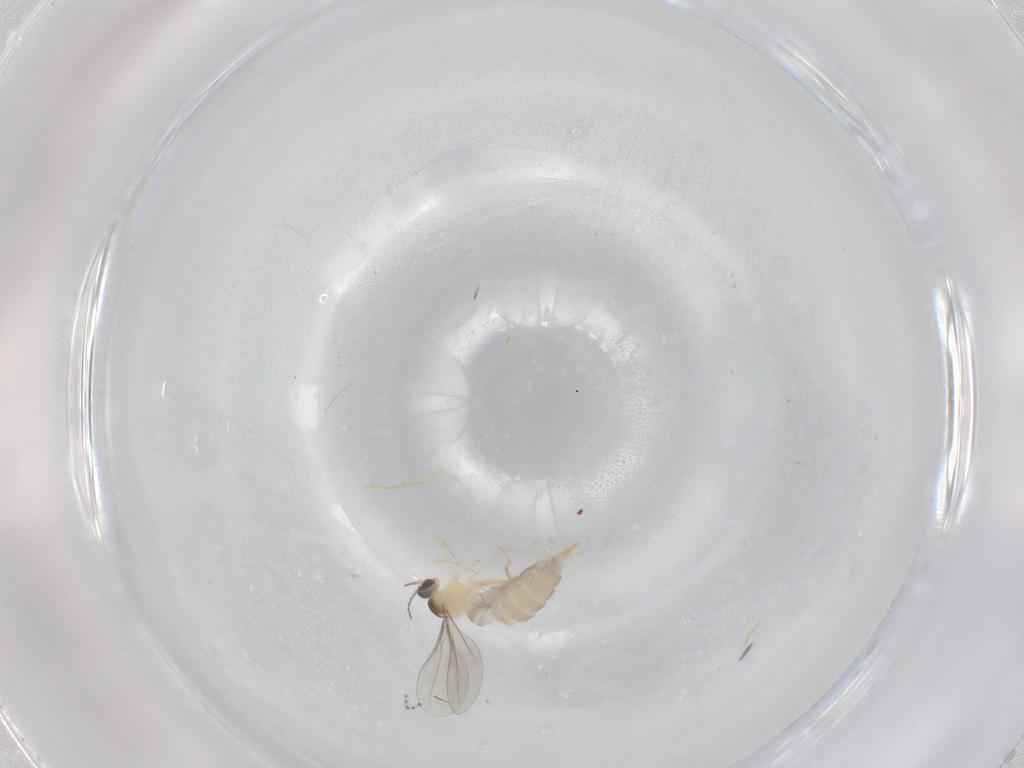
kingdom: Animalia
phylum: Arthropoda
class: Insecta
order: Diptera
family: Cecidomyiidae
